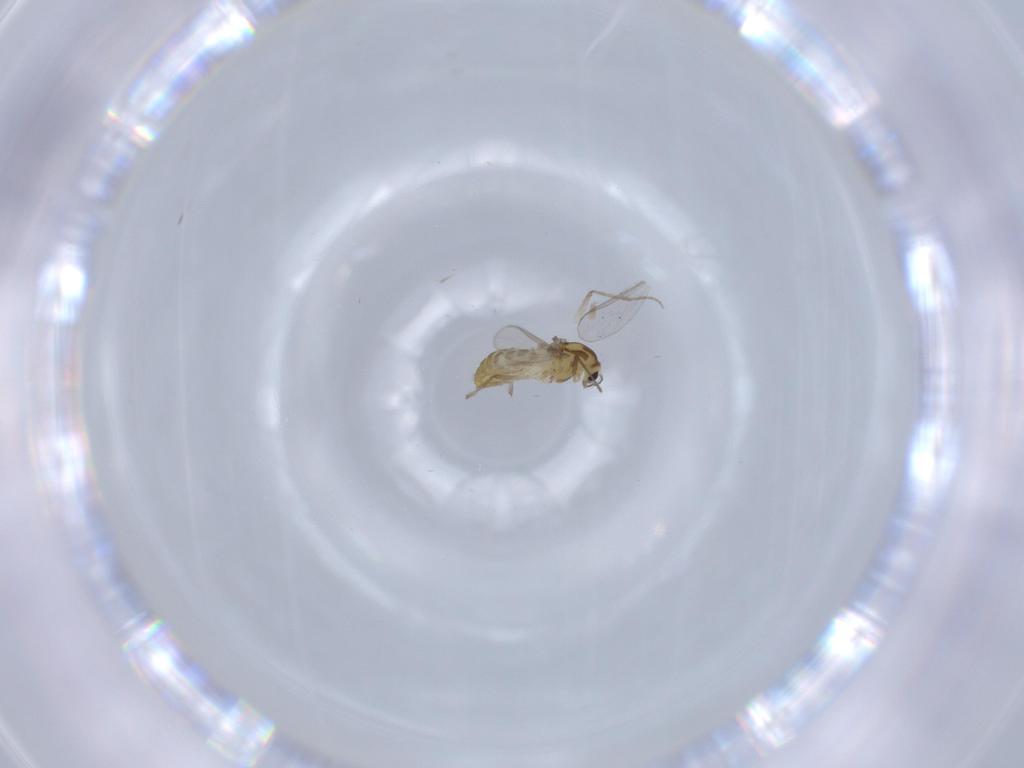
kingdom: Animalia
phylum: Arthropoda
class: Insecta
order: Diptera
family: Chironomidae
